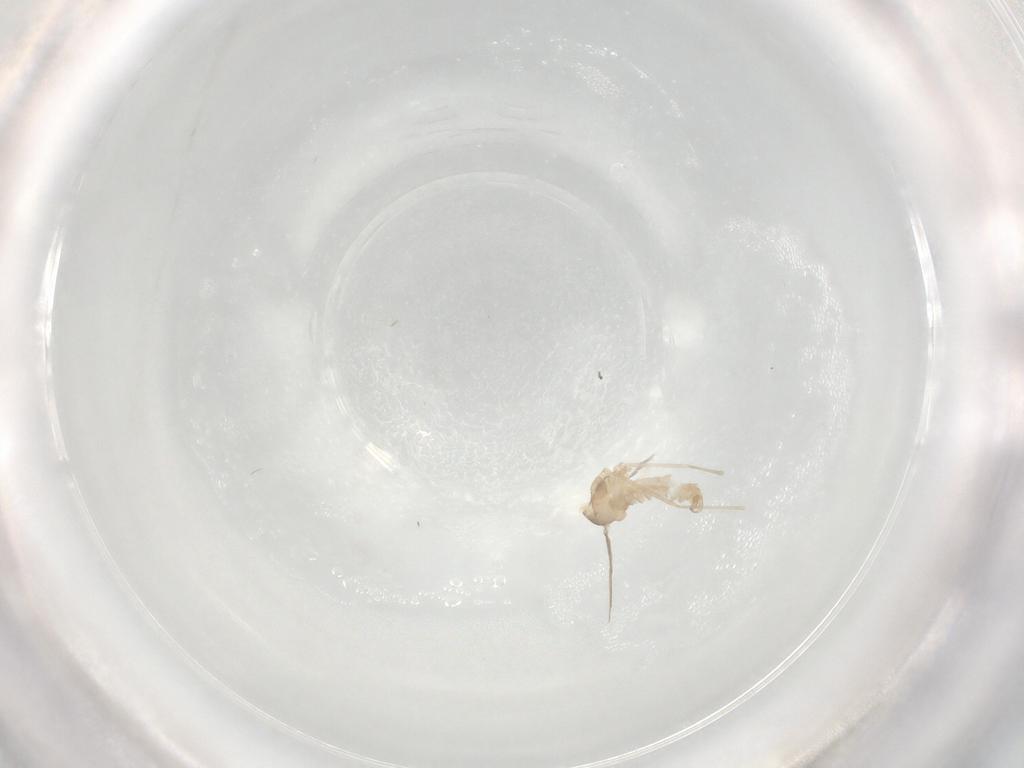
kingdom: Animalia
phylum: Arthropoda
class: Insecta
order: Diptera
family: Cecidomyiidae
